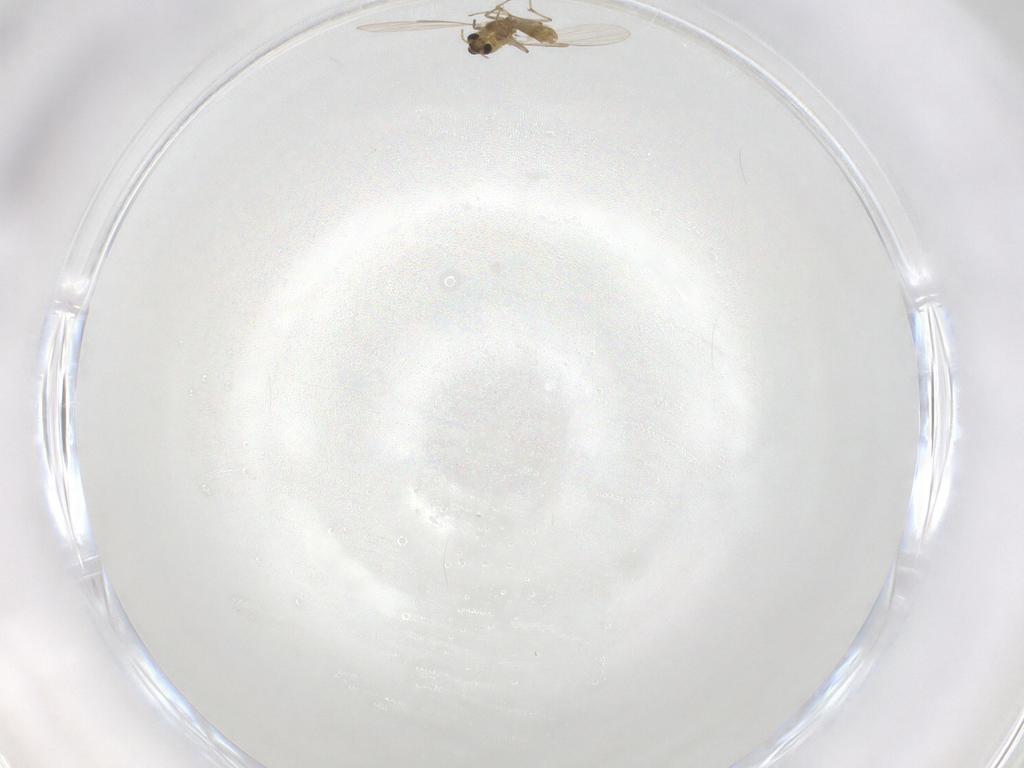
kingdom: Animalia
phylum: Arthropoda
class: Insecta
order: Diptera
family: Chironomidae
